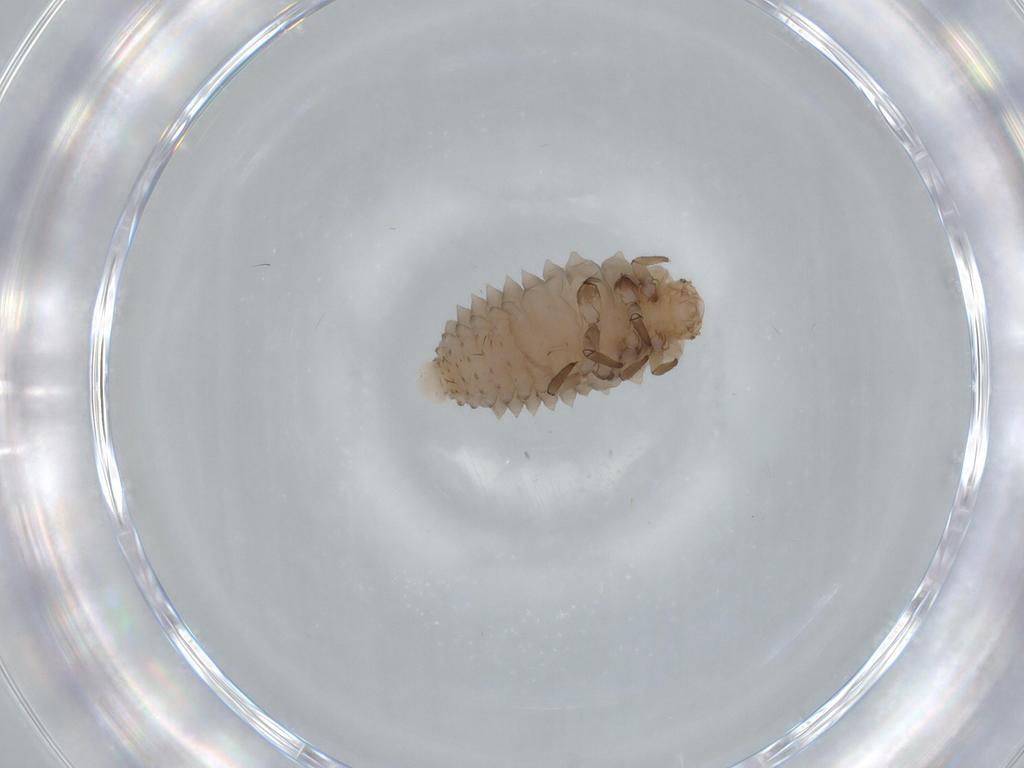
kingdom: Animalia
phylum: Arthropoda
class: Insecta
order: Coleoptera
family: Coccinellidae
